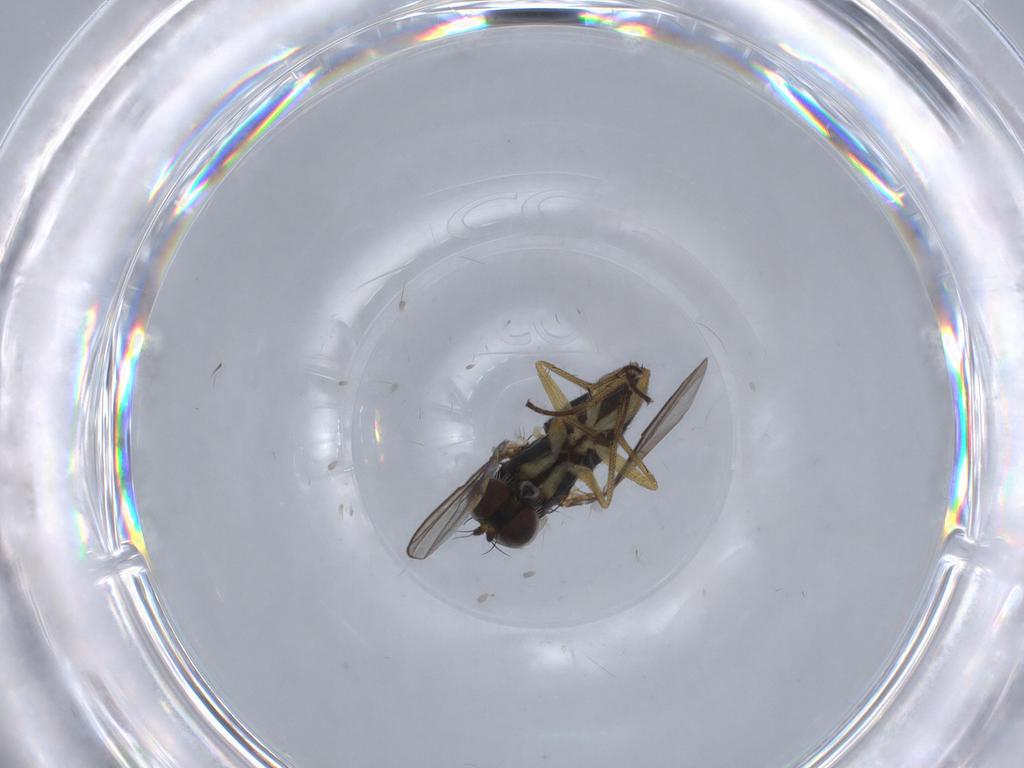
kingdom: Animalia
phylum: Arthropoda
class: Insecta
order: Diptera
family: Dolichopodidae
